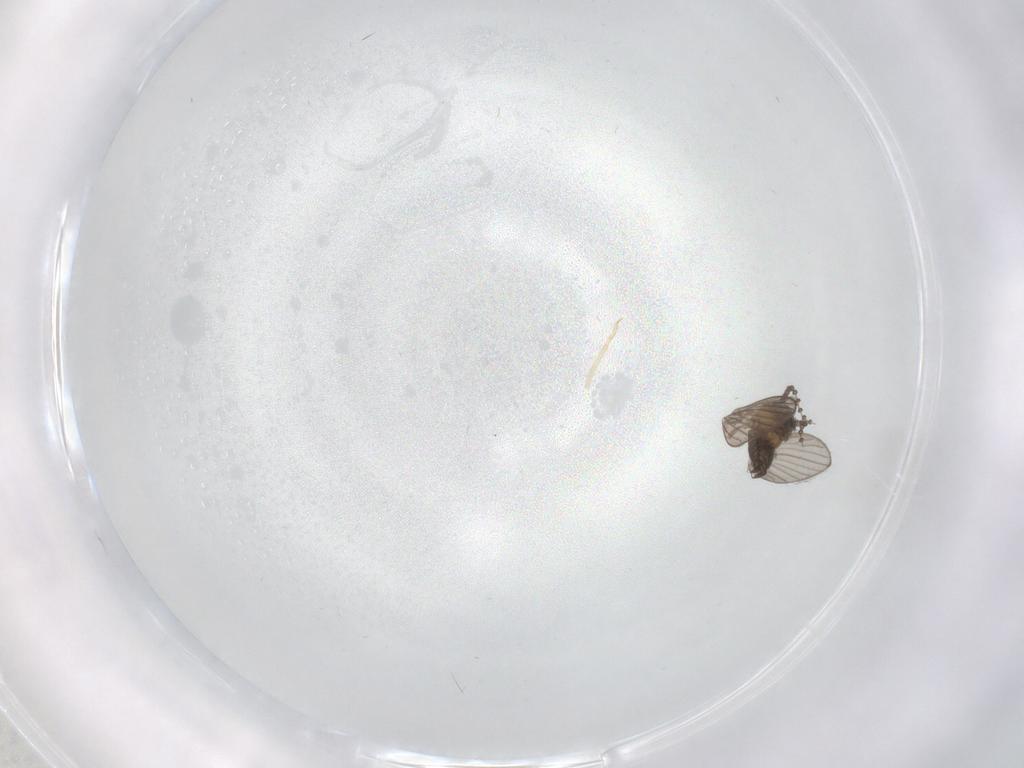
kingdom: Animalia
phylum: Arthropoda
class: Insecta
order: Diptera
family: Psychodidae
